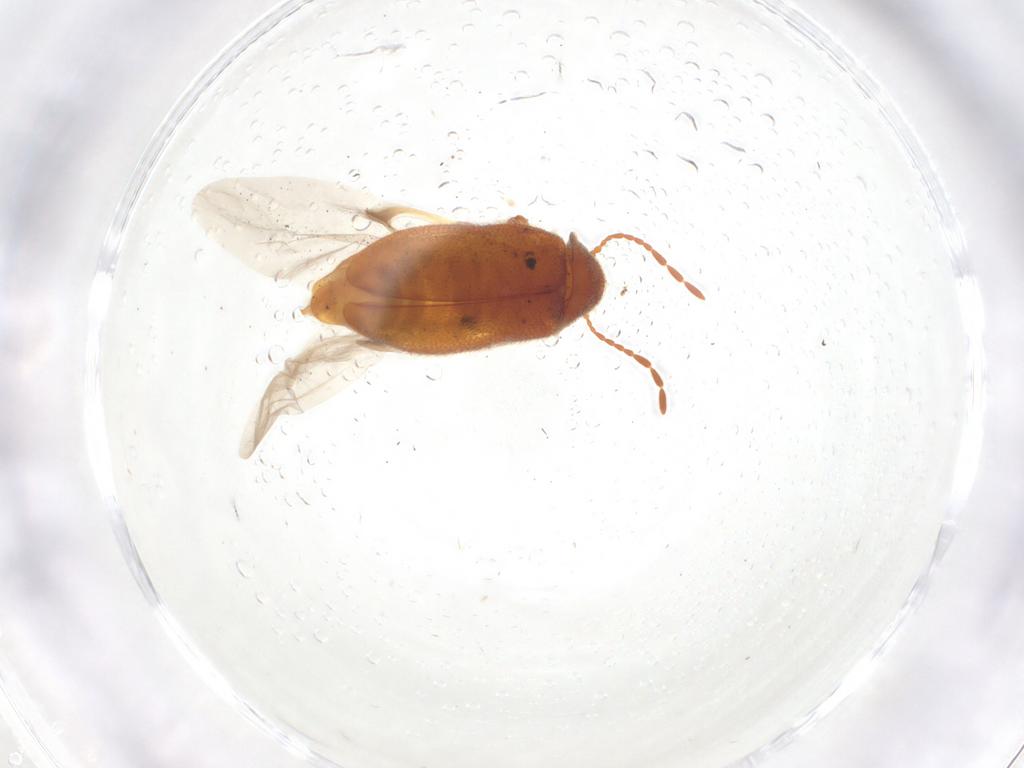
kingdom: Animalia
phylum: Arthropoda
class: Insecta
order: Coleoptera
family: Ptinidae
